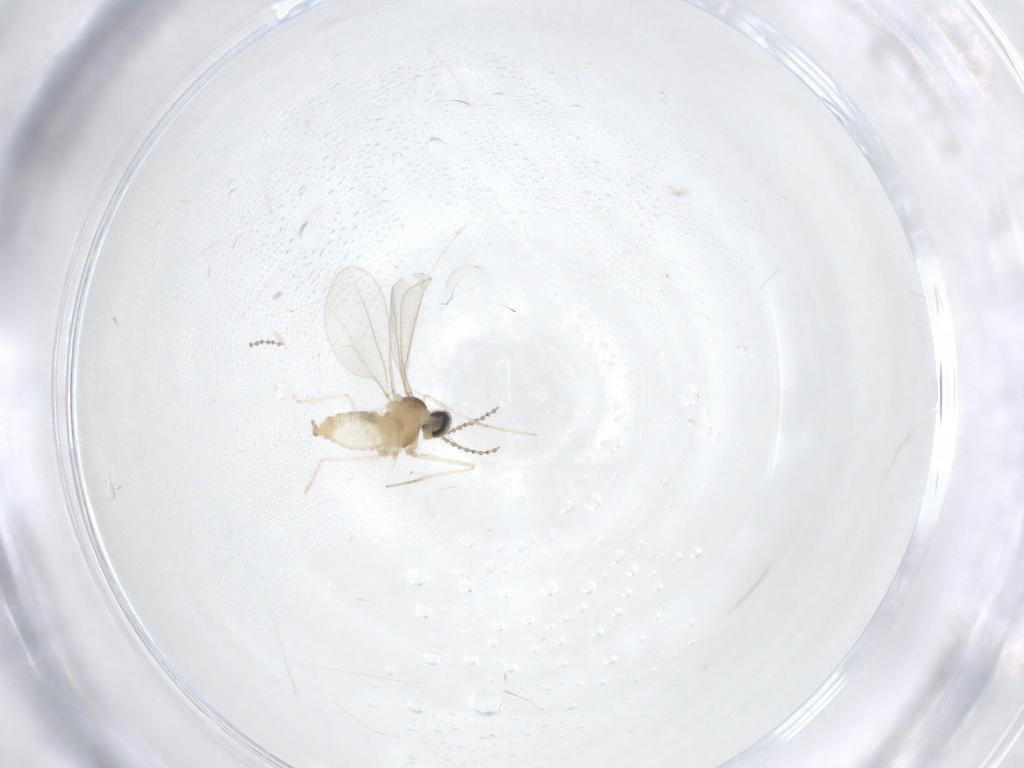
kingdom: Animalia
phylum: Arthropoda
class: Insecta
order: Diptera
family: Cecidomyiidae
